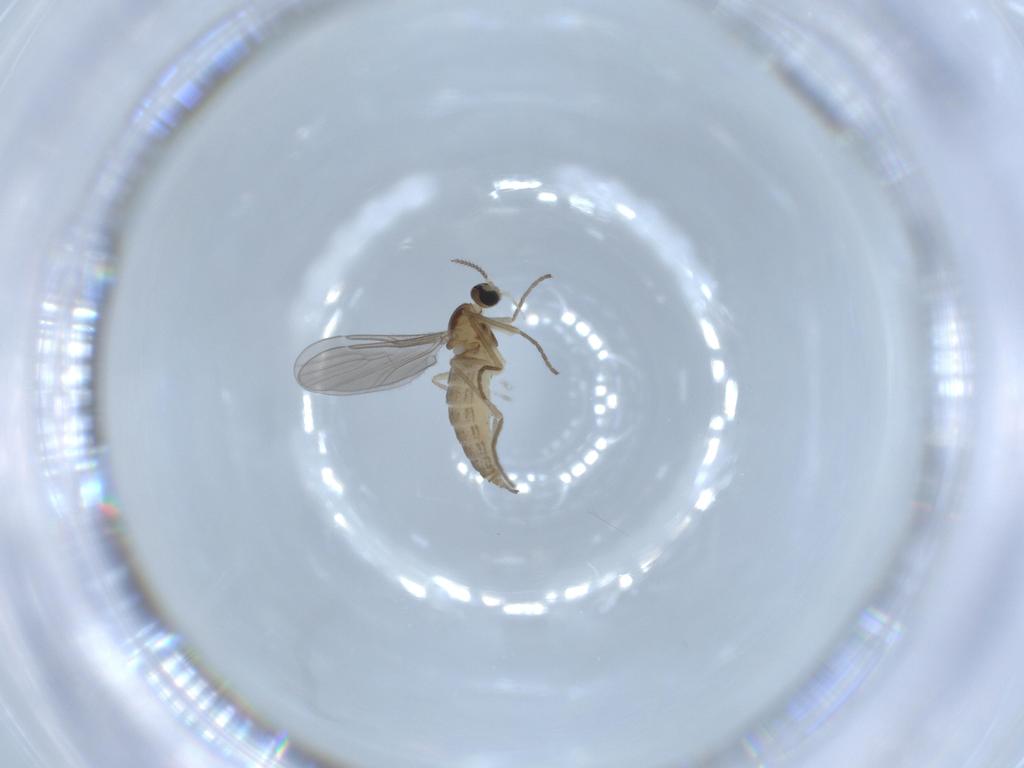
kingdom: Animalia
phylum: Arthropoda
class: Insecta
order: Diptera
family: Cecidomyiidae
